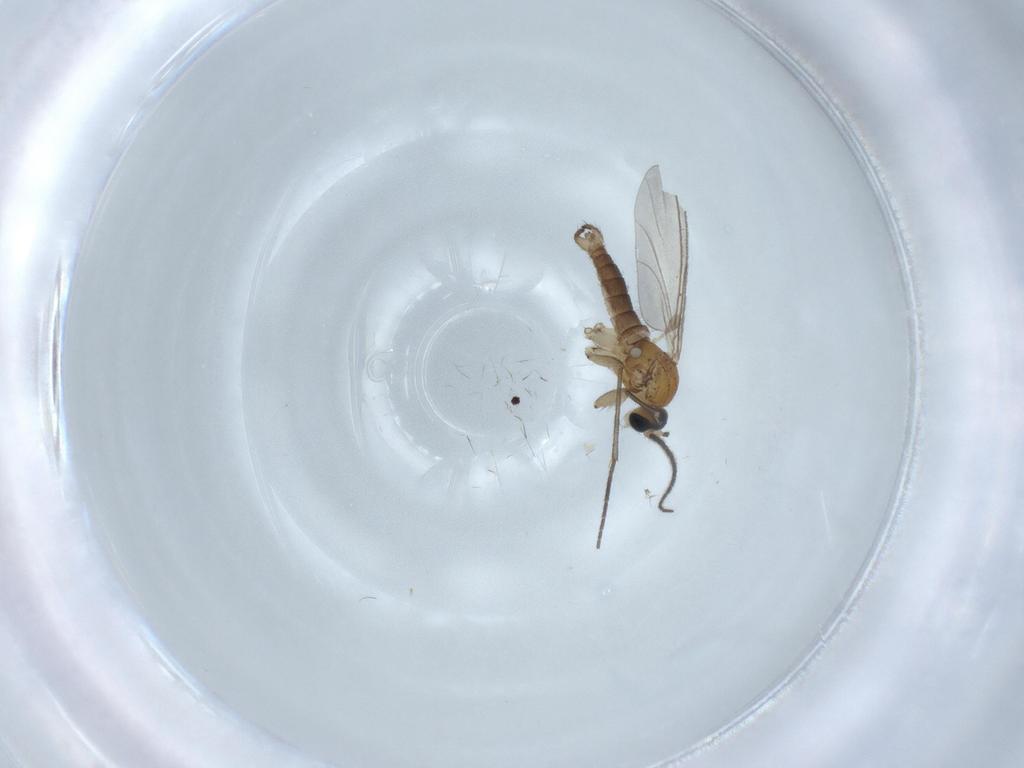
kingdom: Animalia
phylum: Arthropoda
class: Insecta
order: Diptera
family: Sciaridae
